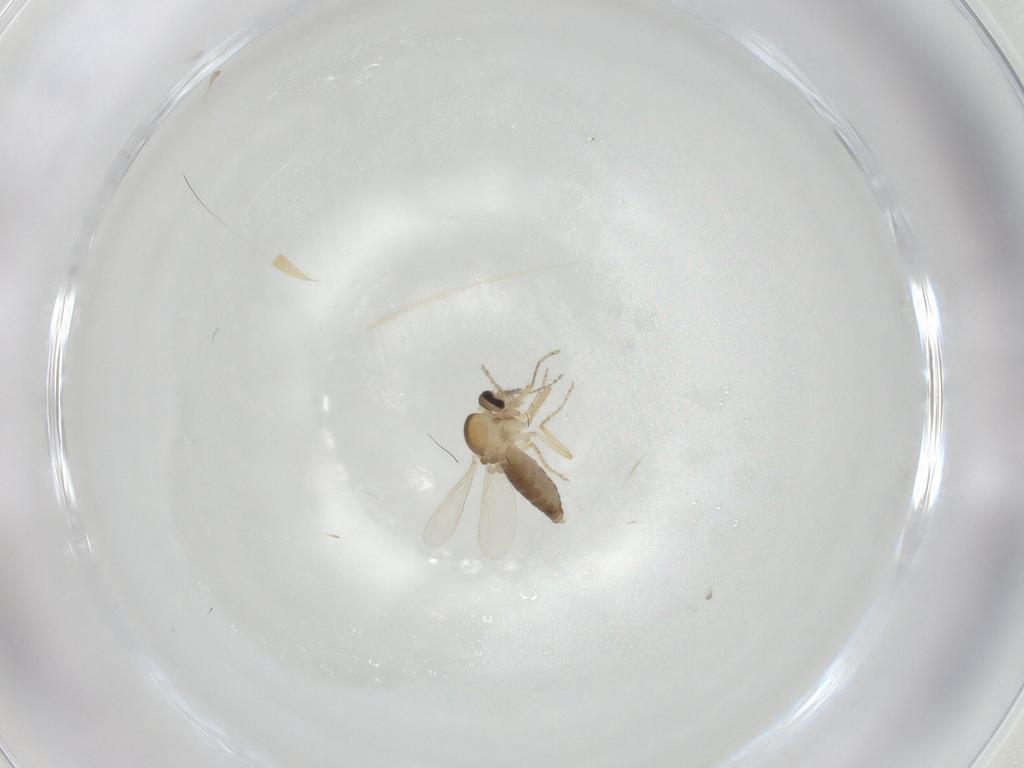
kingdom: Animalia
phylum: Arthropoda
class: Insecta
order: Diptera
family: Ceratopogonidae
